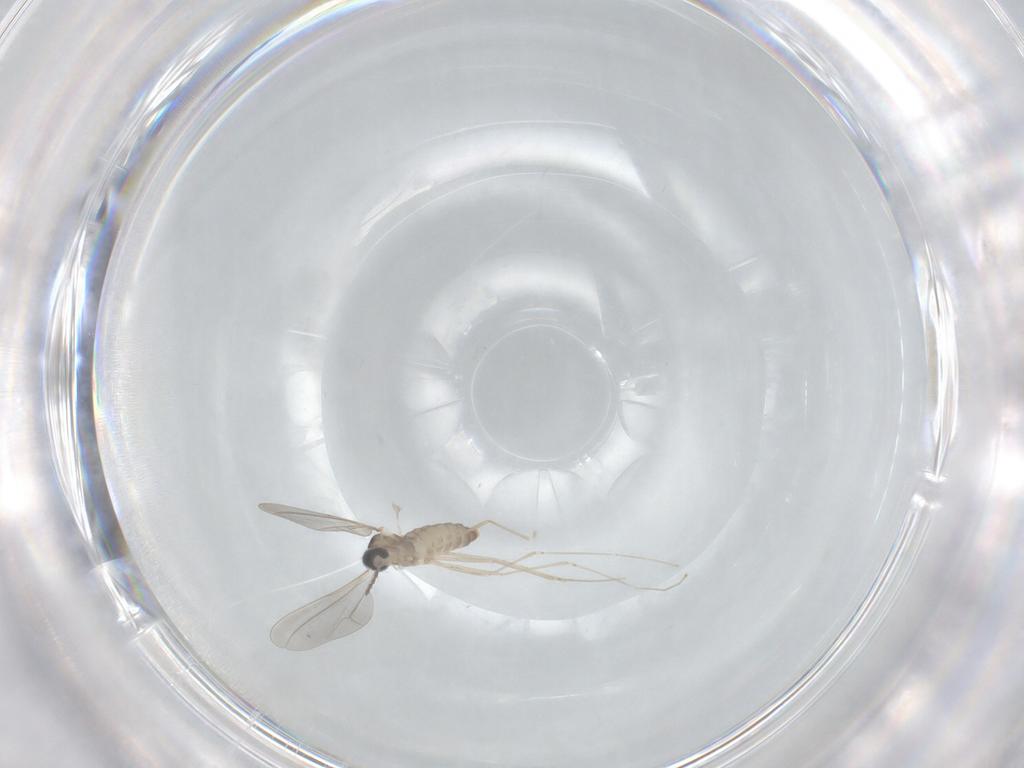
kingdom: Animalia
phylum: Arthropoda
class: Insecta
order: Diptera
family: Cecidomyiidae
